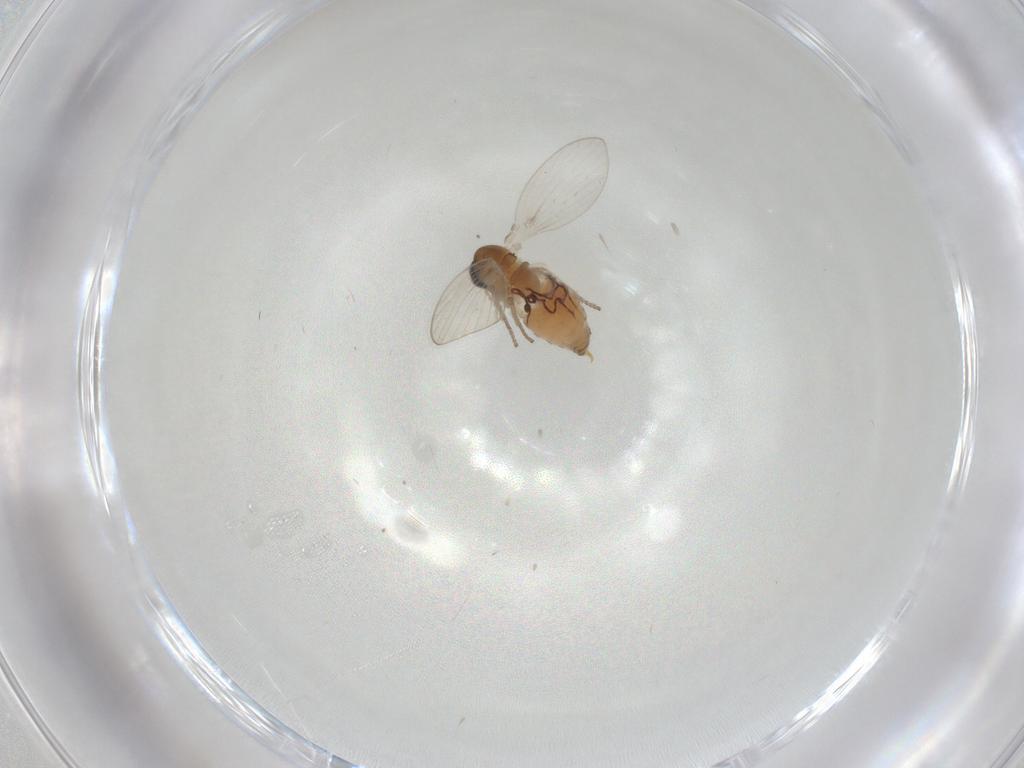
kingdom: Animalia
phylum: Arthropoda
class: Insecta
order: Diptera
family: Psychodidae
